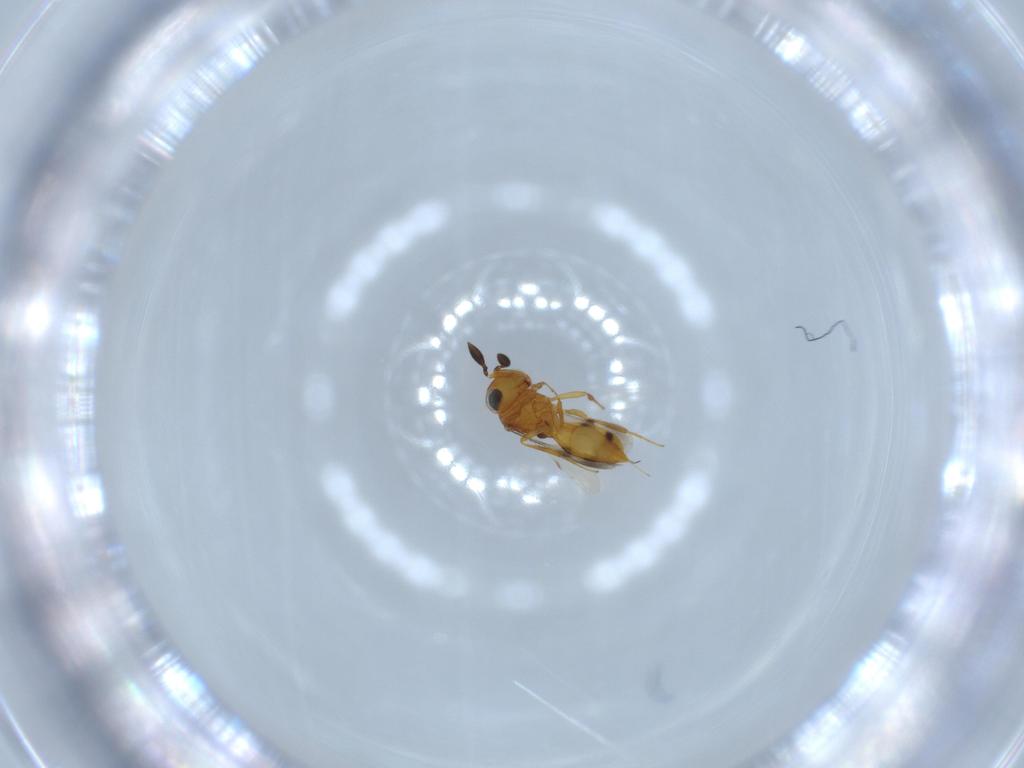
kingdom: Animalia
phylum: Arthropoda
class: Insecta
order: Hymenoptera
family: Scelionidae
